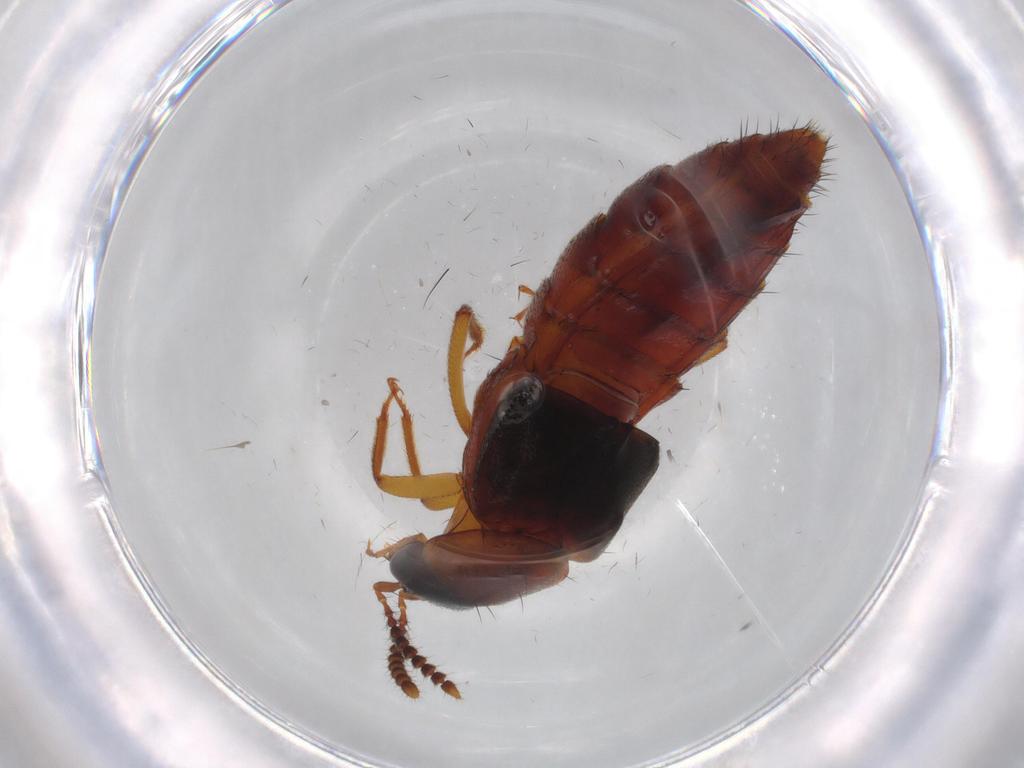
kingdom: Animalia
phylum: Arthropoda
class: Insecta
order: Coleoptera
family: Staphylinidae
